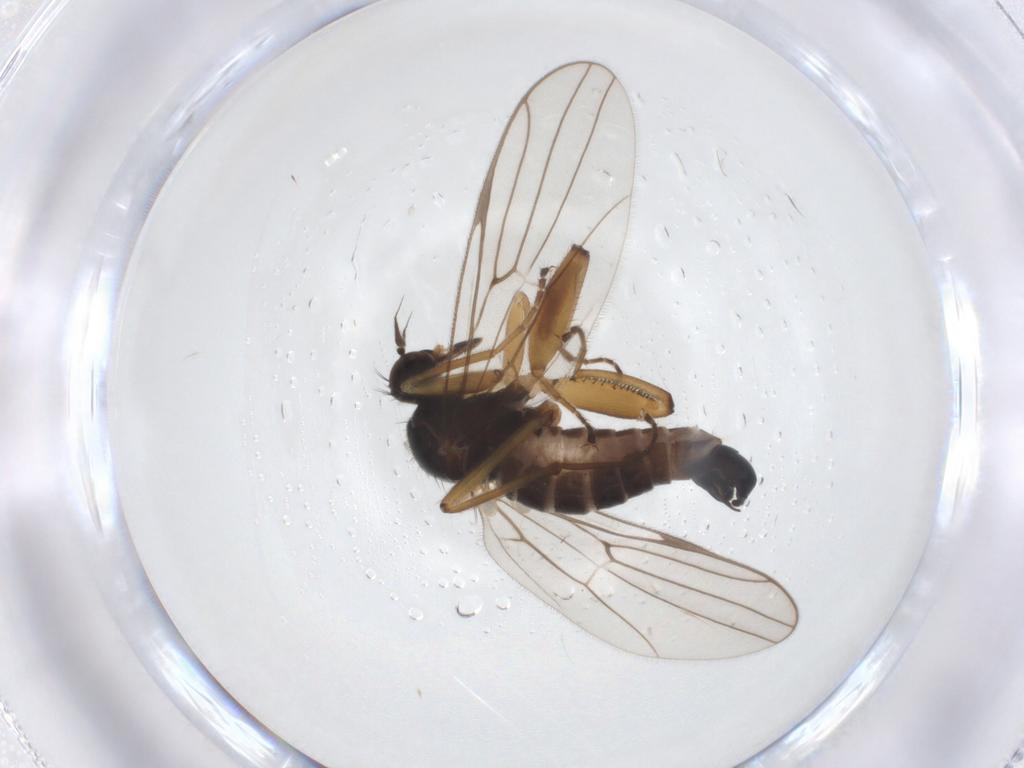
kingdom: Animalia
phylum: Arthropoda
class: Insecta
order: Diptera
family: Hybotidae
